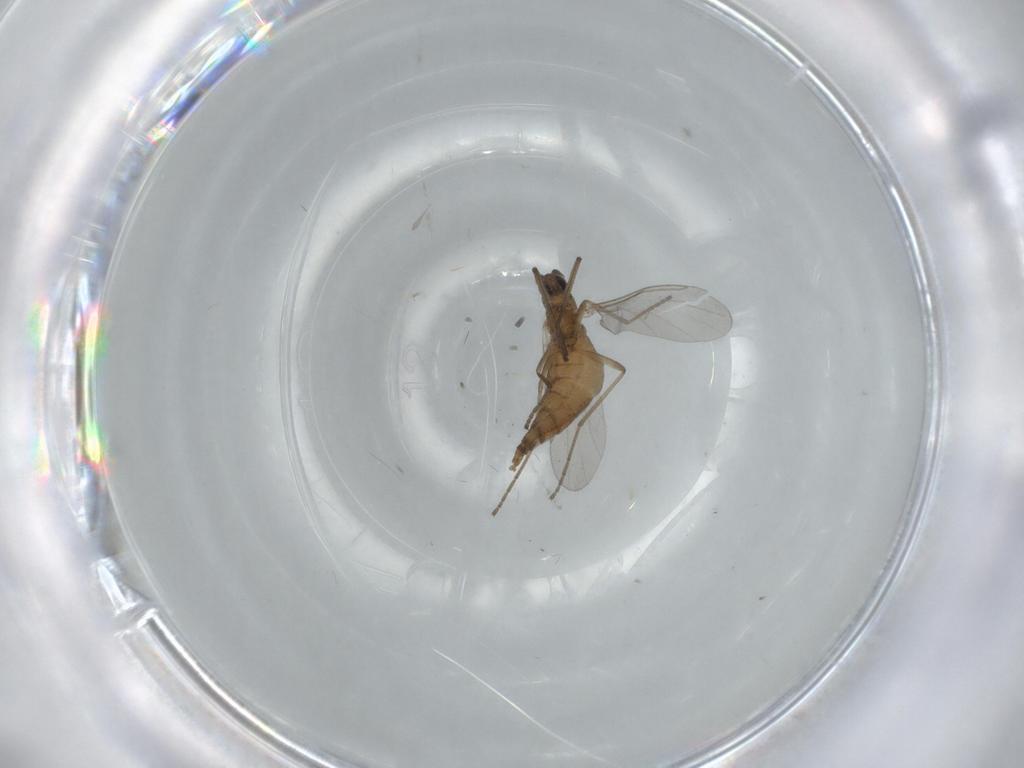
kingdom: Animalia
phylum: Arthropoda
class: Insecta
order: Diptera
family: Cecidomyiidae
